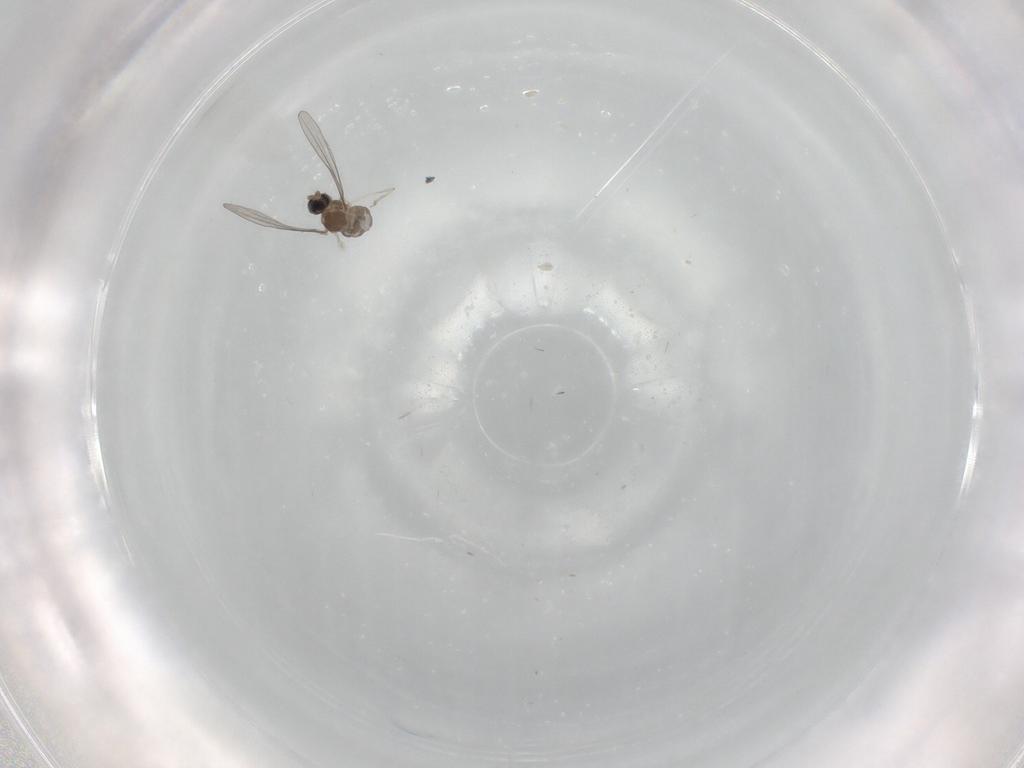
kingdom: Animalia
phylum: Arthropoda
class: Insecta
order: Diptera
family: Cecidomyiidae
